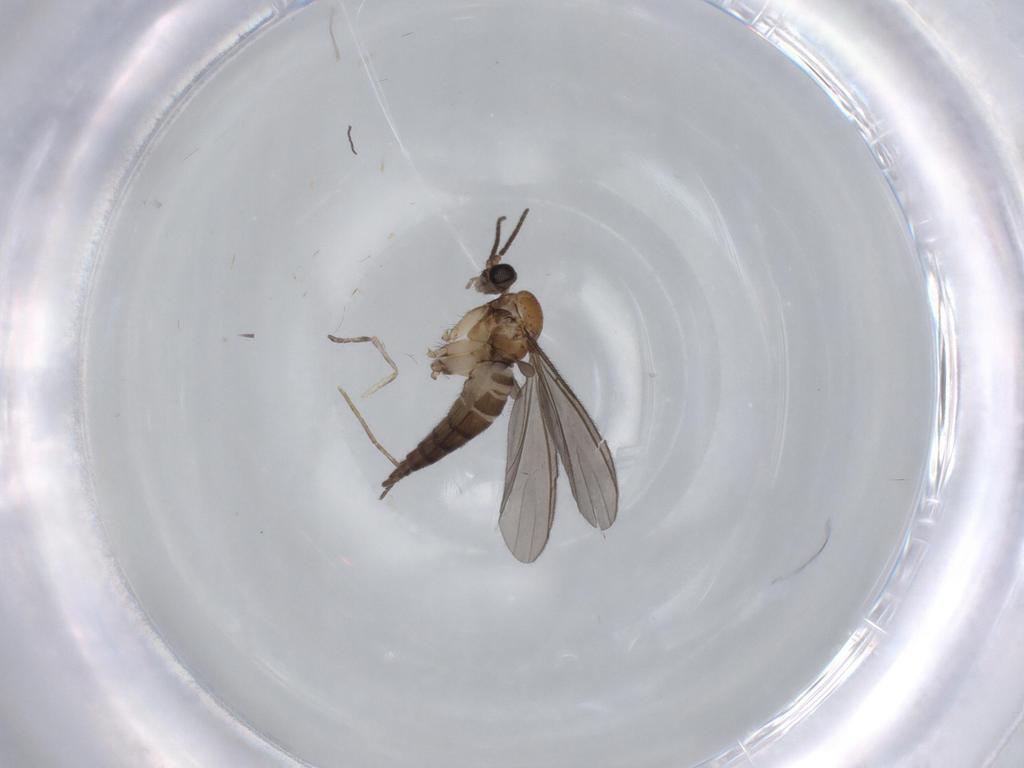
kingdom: Animalia
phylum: Arthropoda
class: Insecta
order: Diptera
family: Sciaridae
